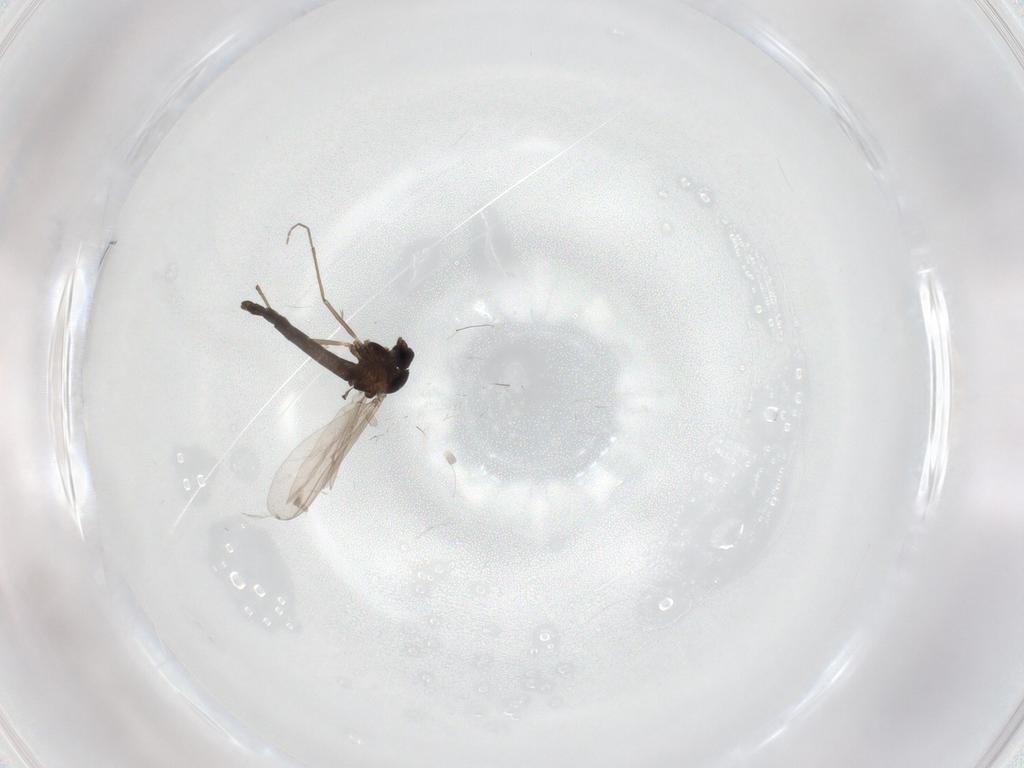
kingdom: Animalia
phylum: Arthropoda
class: Insecta
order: Diptera
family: Chironomidae
